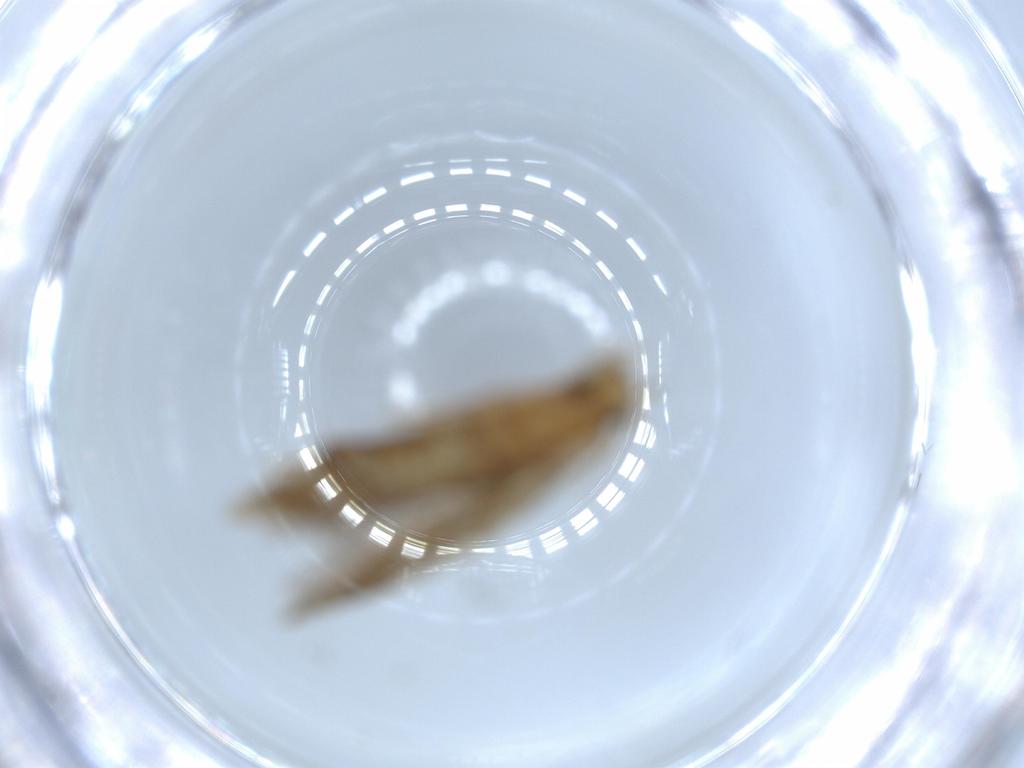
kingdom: Animalia
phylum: Arthropoda
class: Insecta
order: Lepidoptera
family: Tineidae
